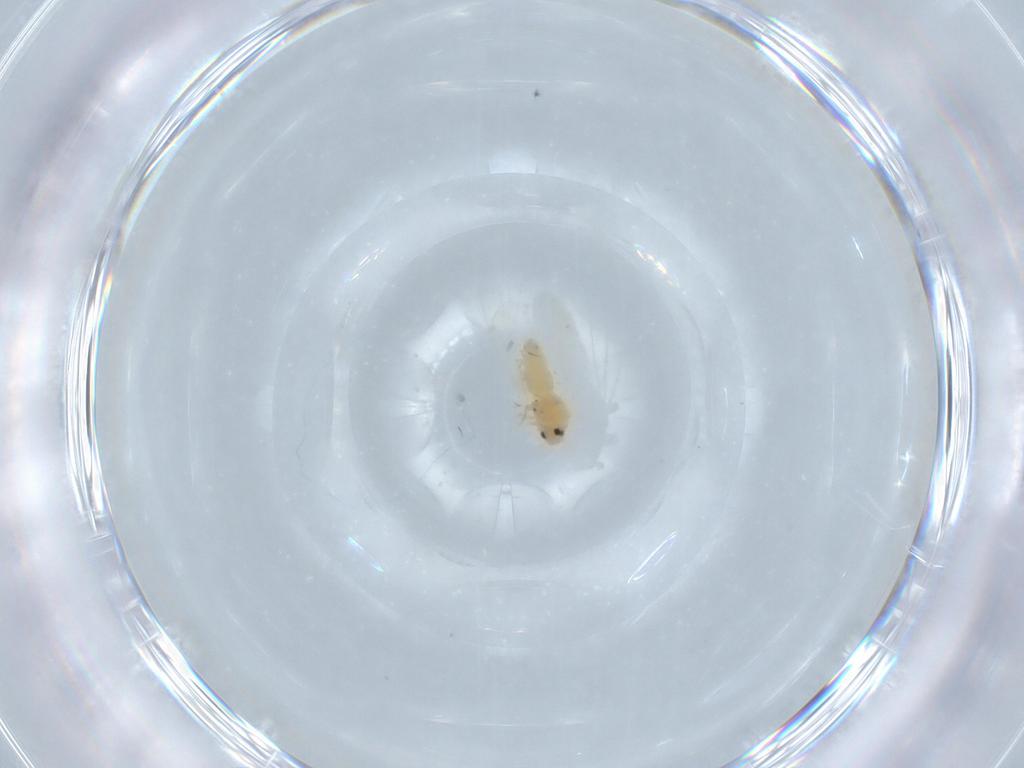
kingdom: Animalia
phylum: Arthropoda
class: Insecta
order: Hemiptera
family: Aleyrodidae
